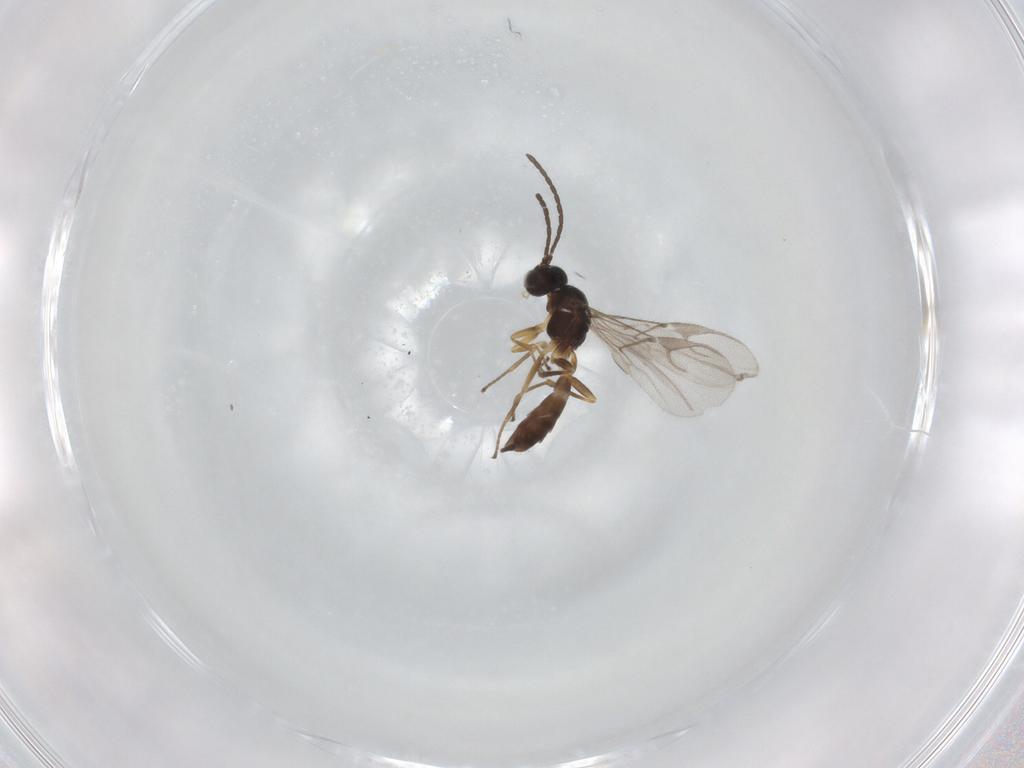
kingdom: Animalia
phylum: Arthropoda
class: Insecta
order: Hymenoptera
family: Braconidae
